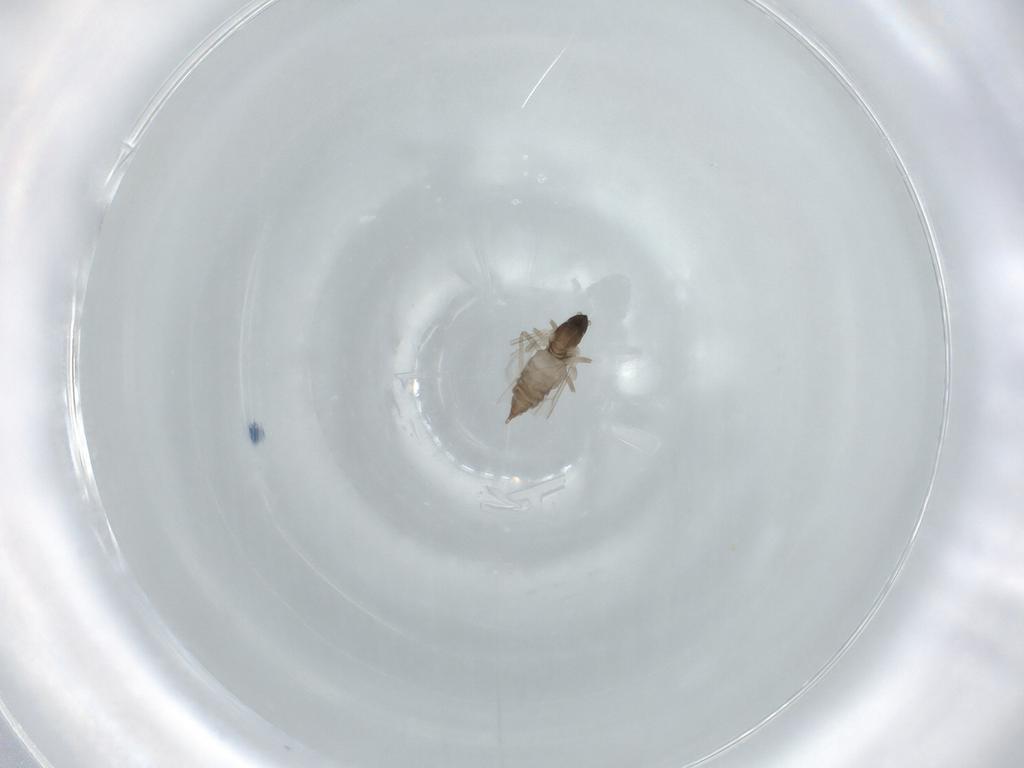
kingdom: Animalia
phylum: Arthropoda
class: Insecta
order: Diptera
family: Cecidomyiidae
